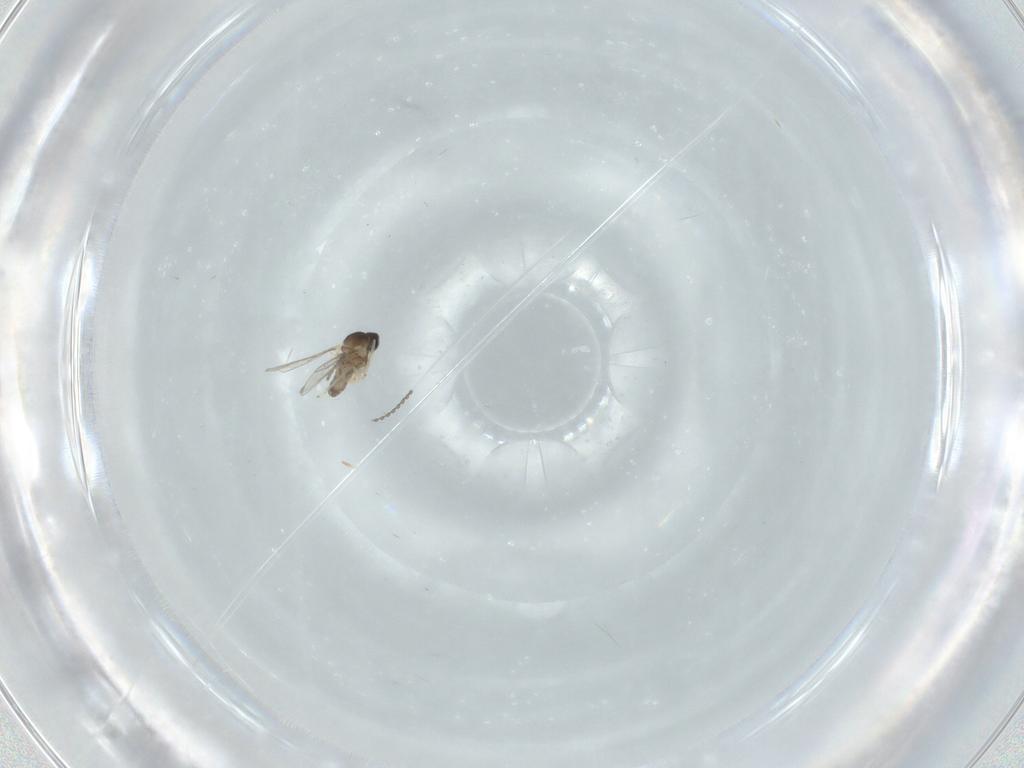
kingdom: Animalia
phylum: Arthropoda
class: Insecta
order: Diptera
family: Cecidomyiidae
